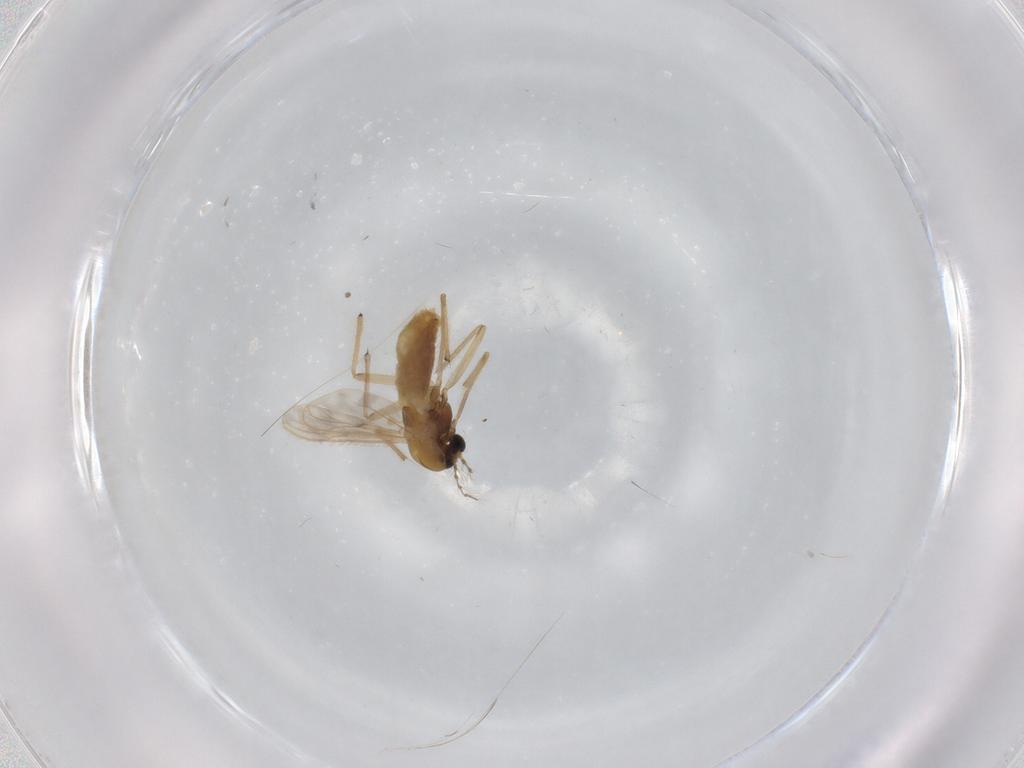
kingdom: Animalia
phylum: Arthropoda
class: Insecta
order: Diptera
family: Chironomidae
